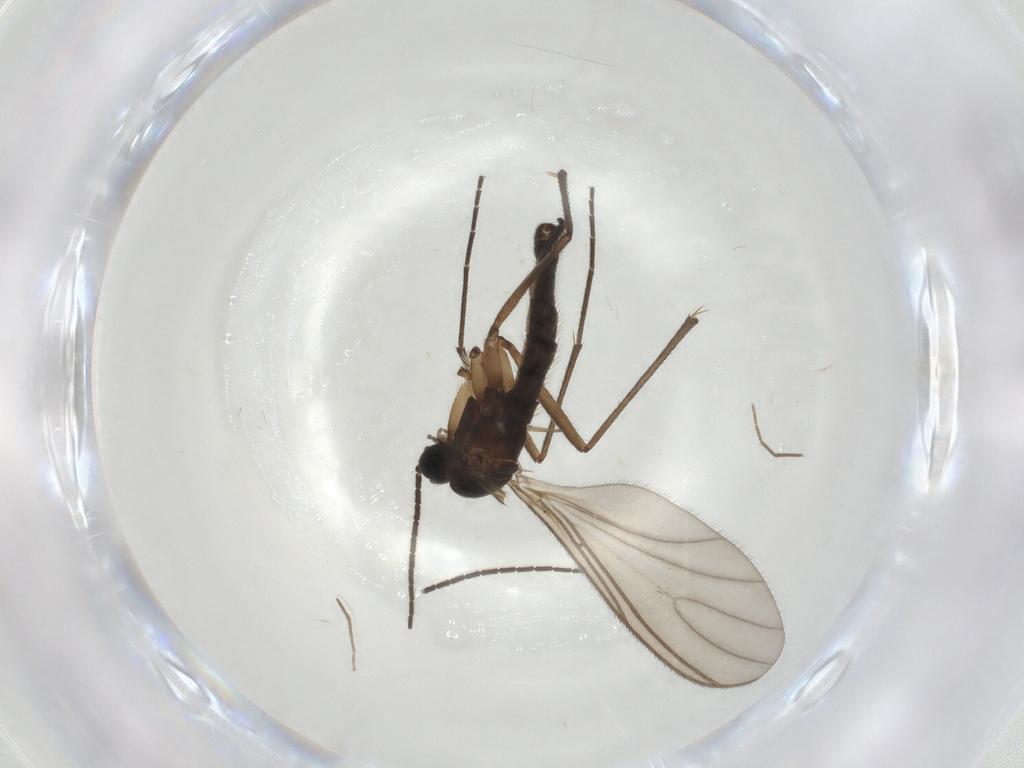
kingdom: Animalia
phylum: Arthropoda
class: Insecta
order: Diptera
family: Sciaridae
